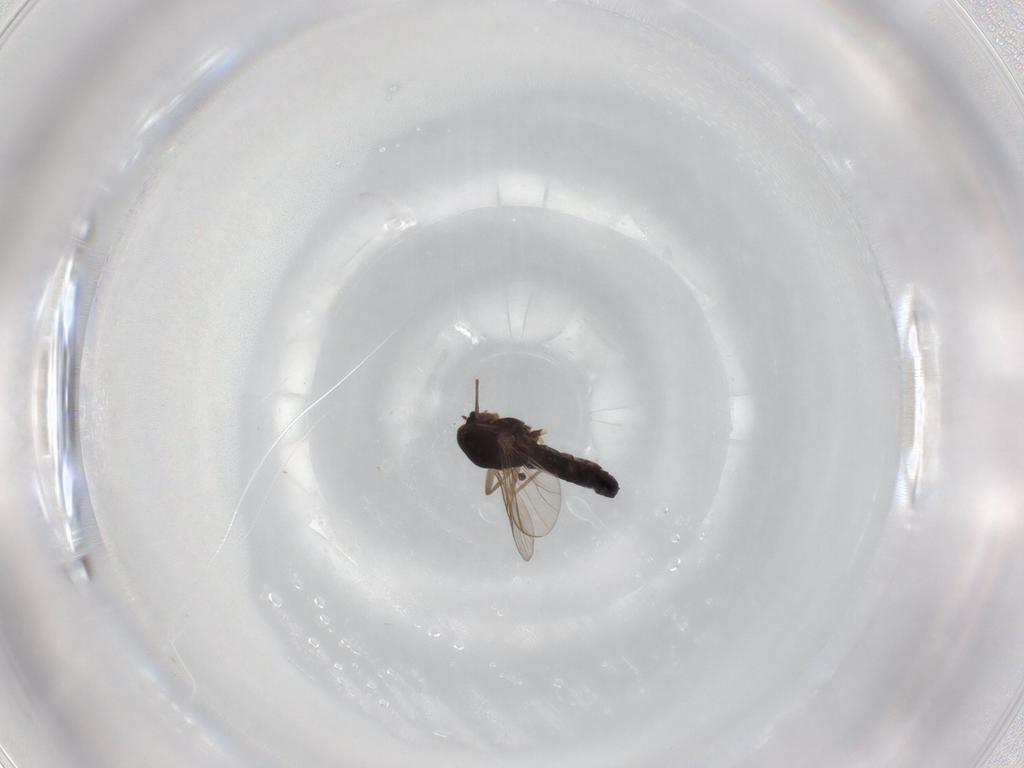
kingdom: Animalia
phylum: Arthropoda
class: Insecta
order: Diptera
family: Chironomidae
